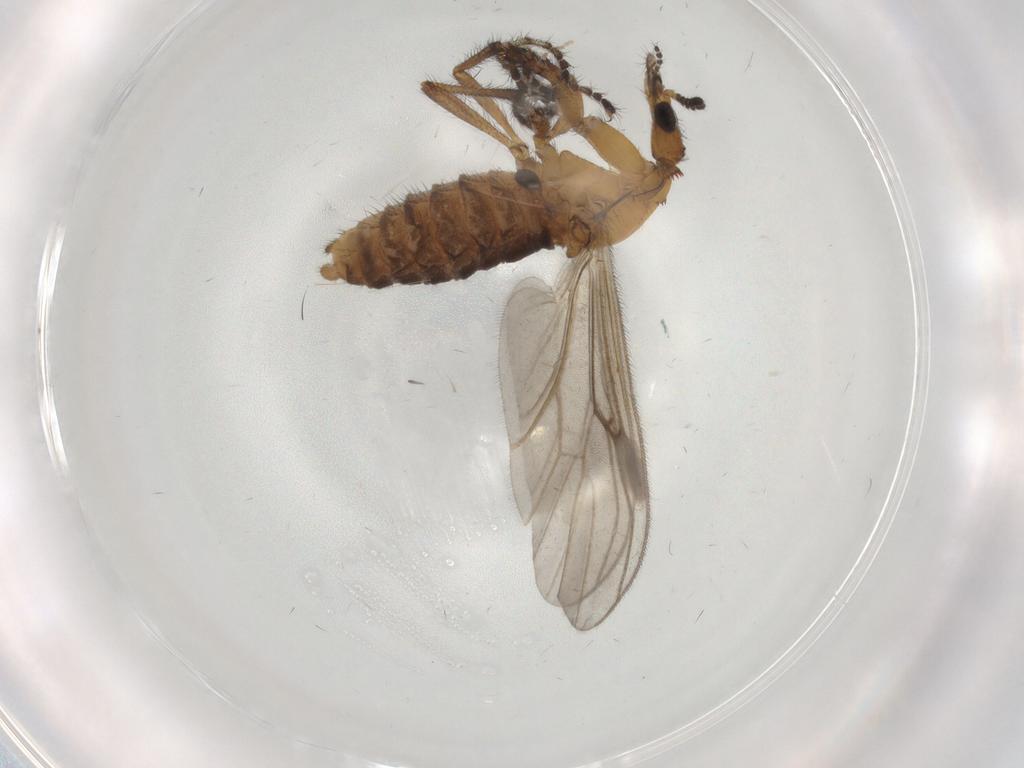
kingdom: Animalia
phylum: Arthropoda
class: Insecta
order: Diptera
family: Bibionidae
